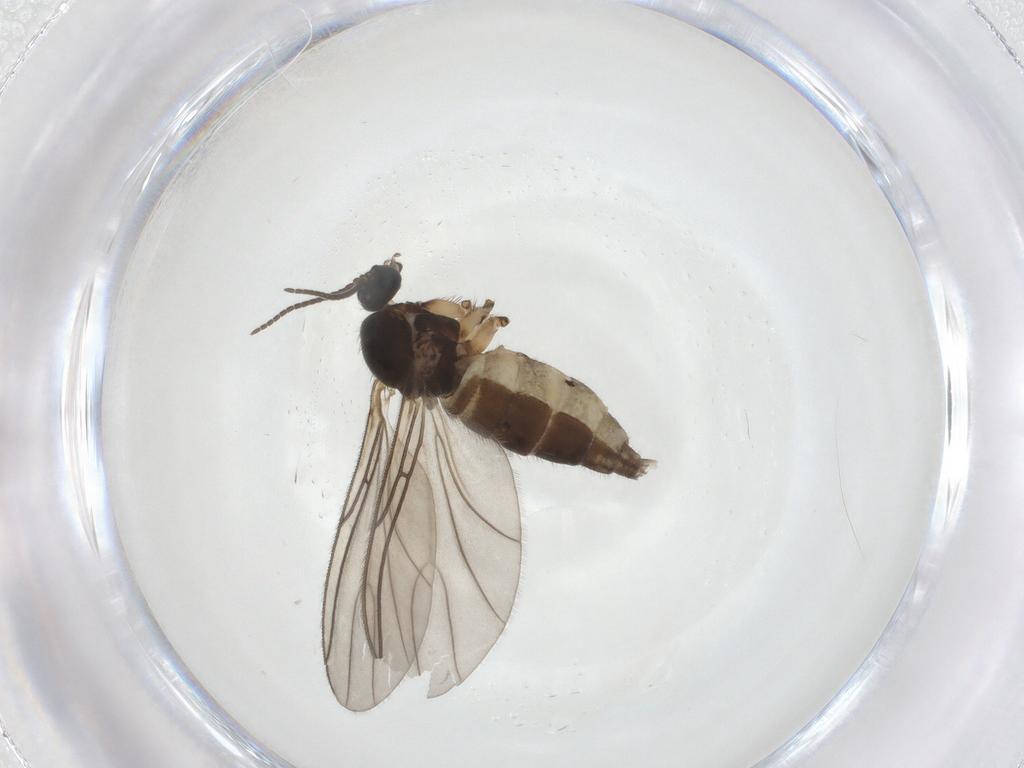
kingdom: Animalia
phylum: Arthropoda
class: Insecta
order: Diptera
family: Sciaridae
